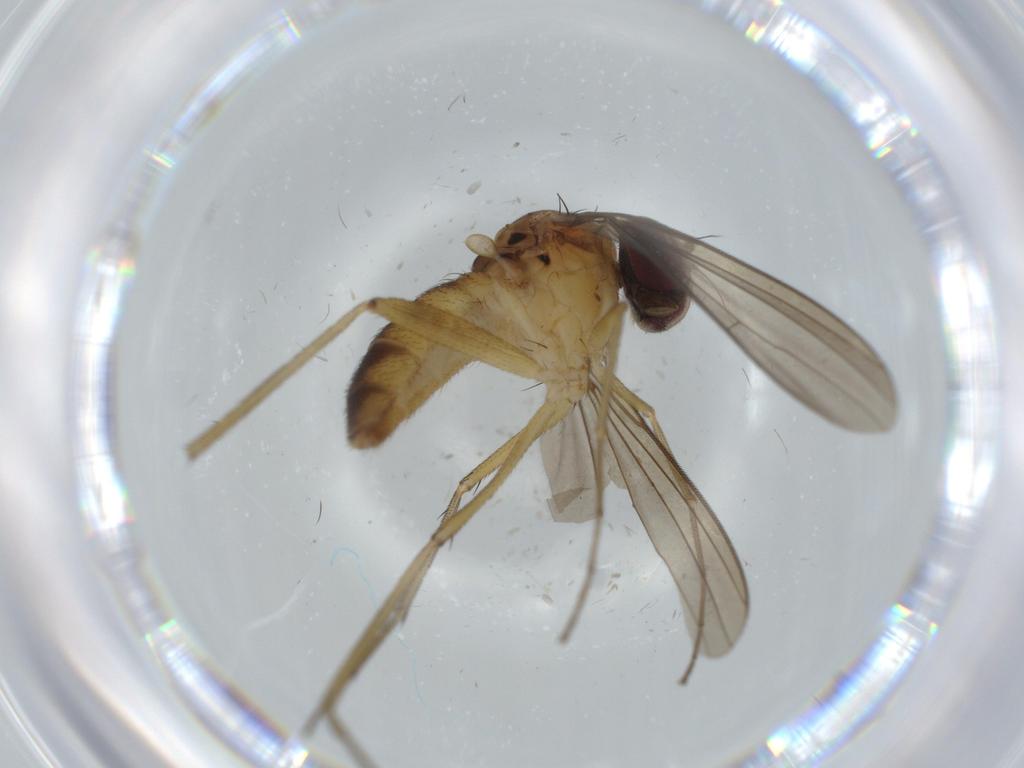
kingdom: Animalia
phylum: Arthropoda
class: Insecta
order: Diptera
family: Dolichopodidae
